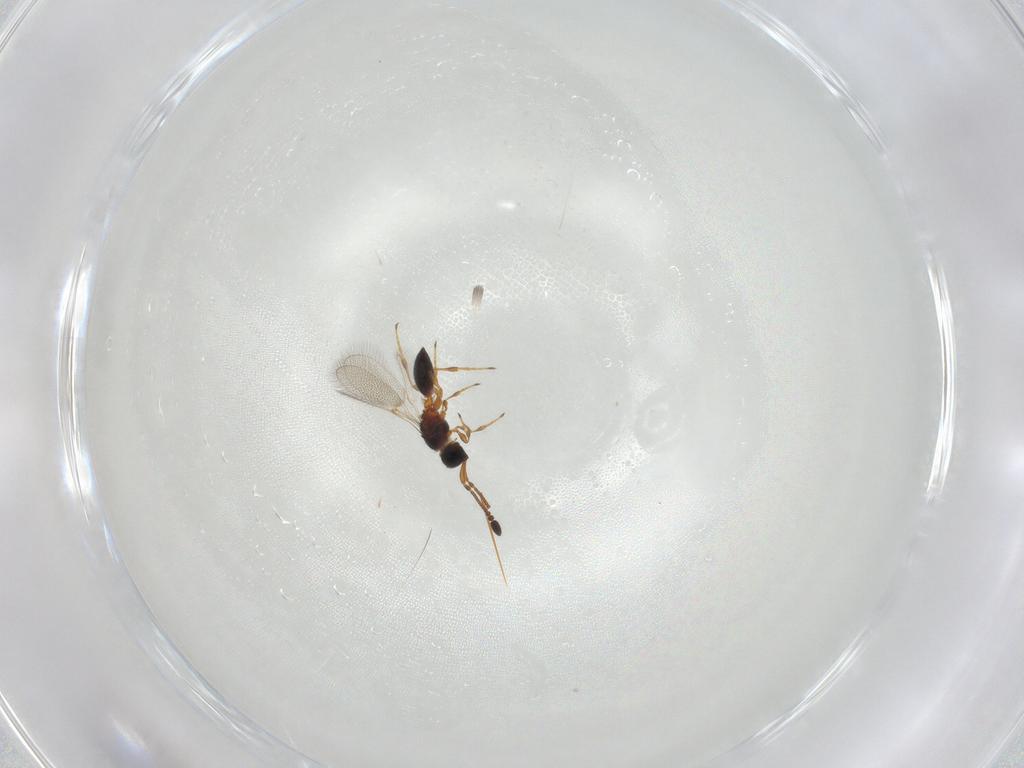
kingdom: Animalia
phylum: Arthropoda
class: Insecta
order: Hymenoptera
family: Diapriidae
